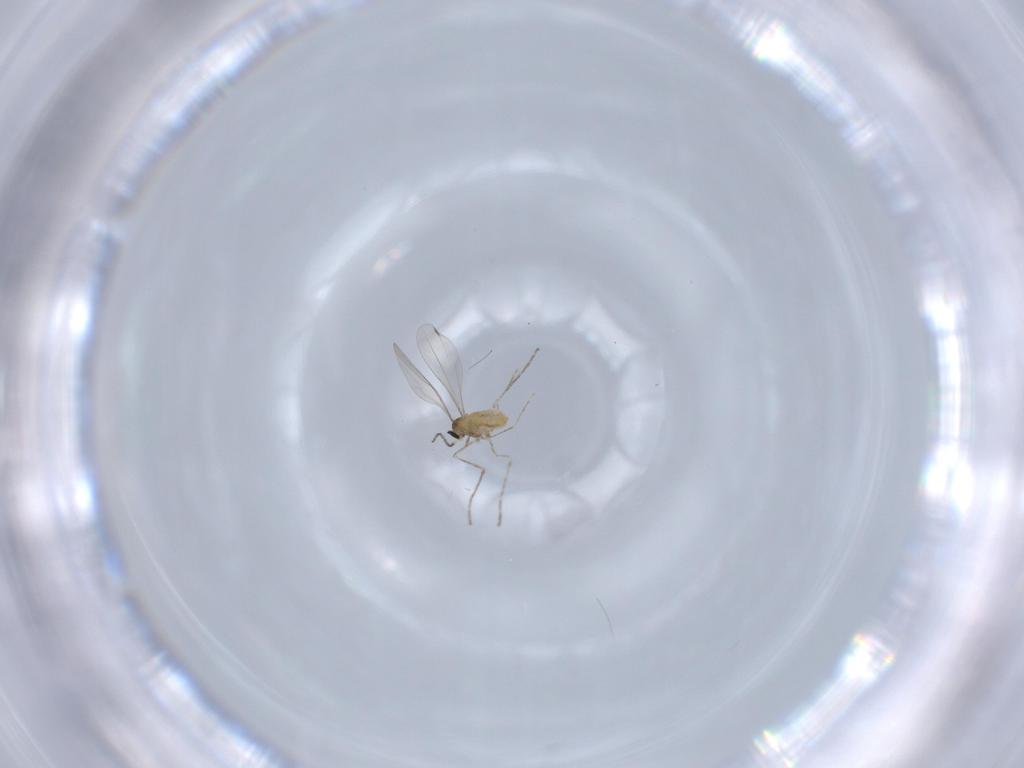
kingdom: Animalia
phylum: Arthropoda
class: Insecta
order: Diptera
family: Cecidomyiidae
